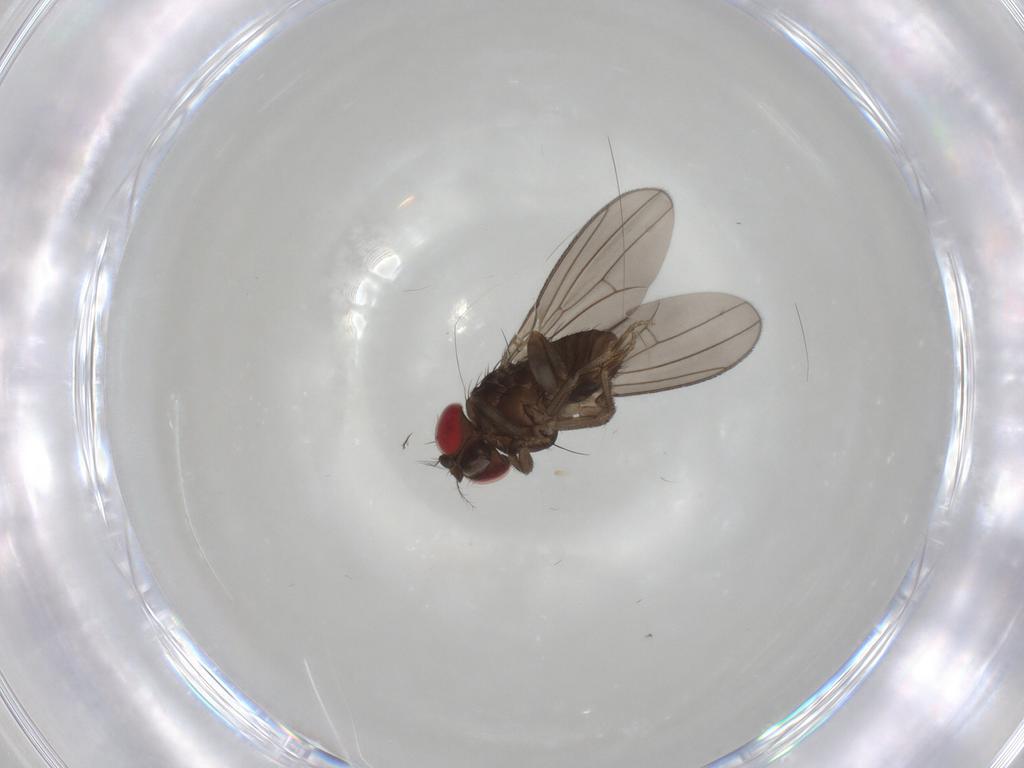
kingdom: Animalia
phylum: Arthropoda
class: Insecta
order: Diptera
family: Drosophilidae
